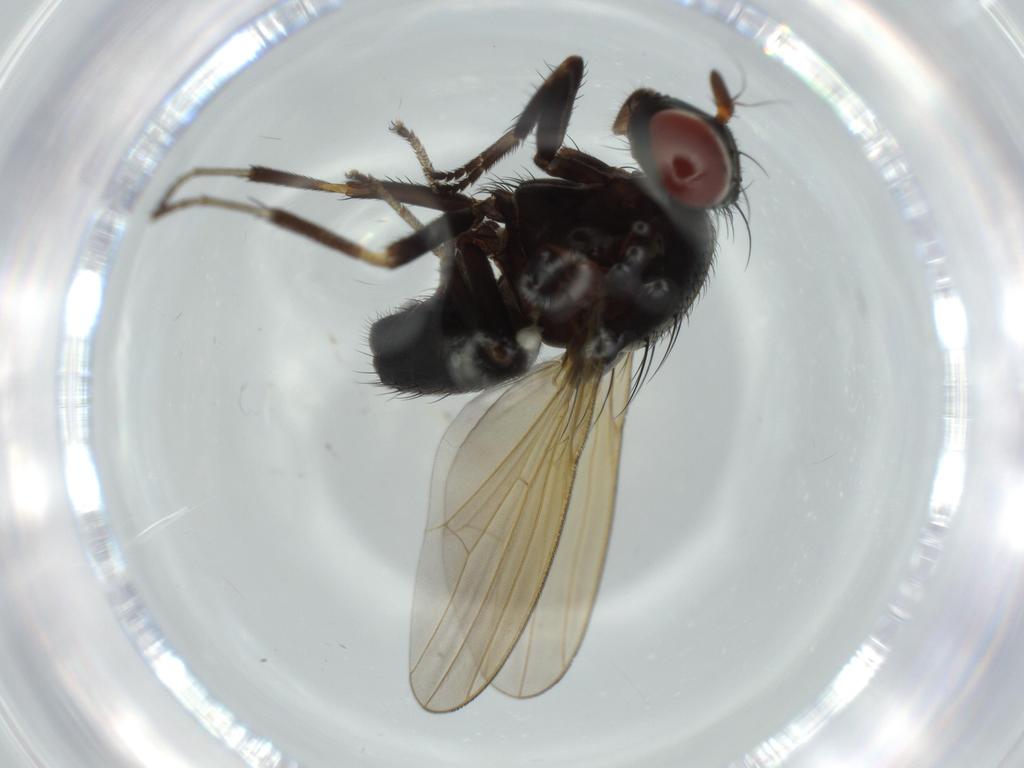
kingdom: Animalia
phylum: Arthropoda
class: Insecta
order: Diptera
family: Lauxaniidae
